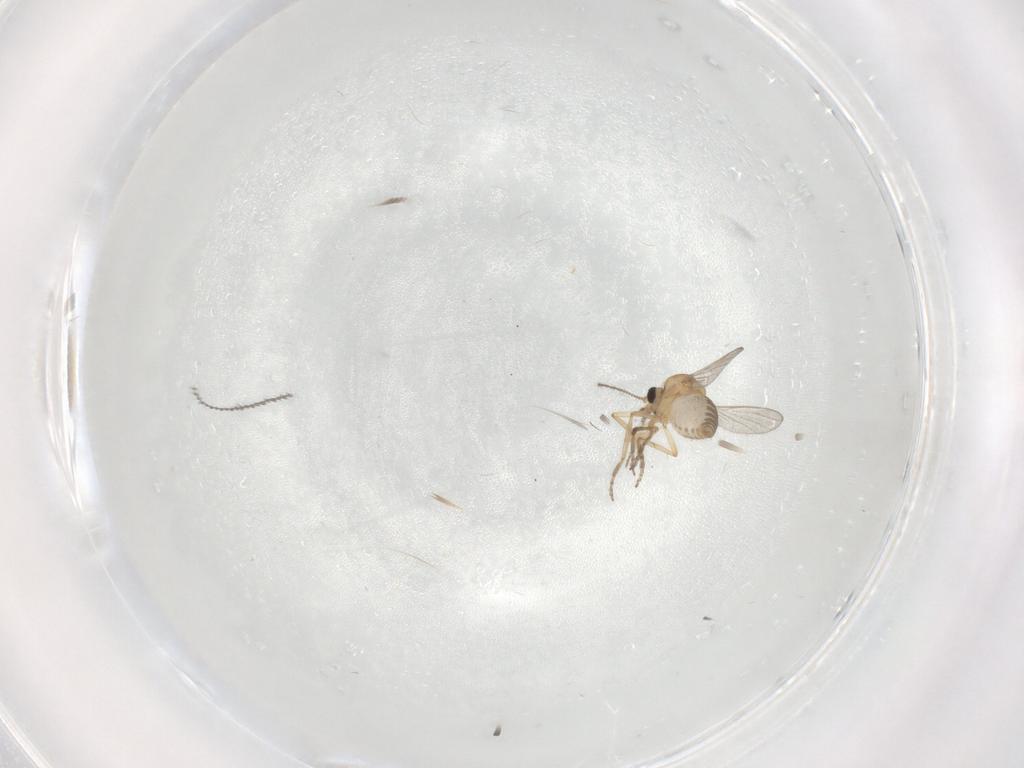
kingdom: Animalia
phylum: Arthropoda
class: Insecta
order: Diptera
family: Ceratopogonidae
